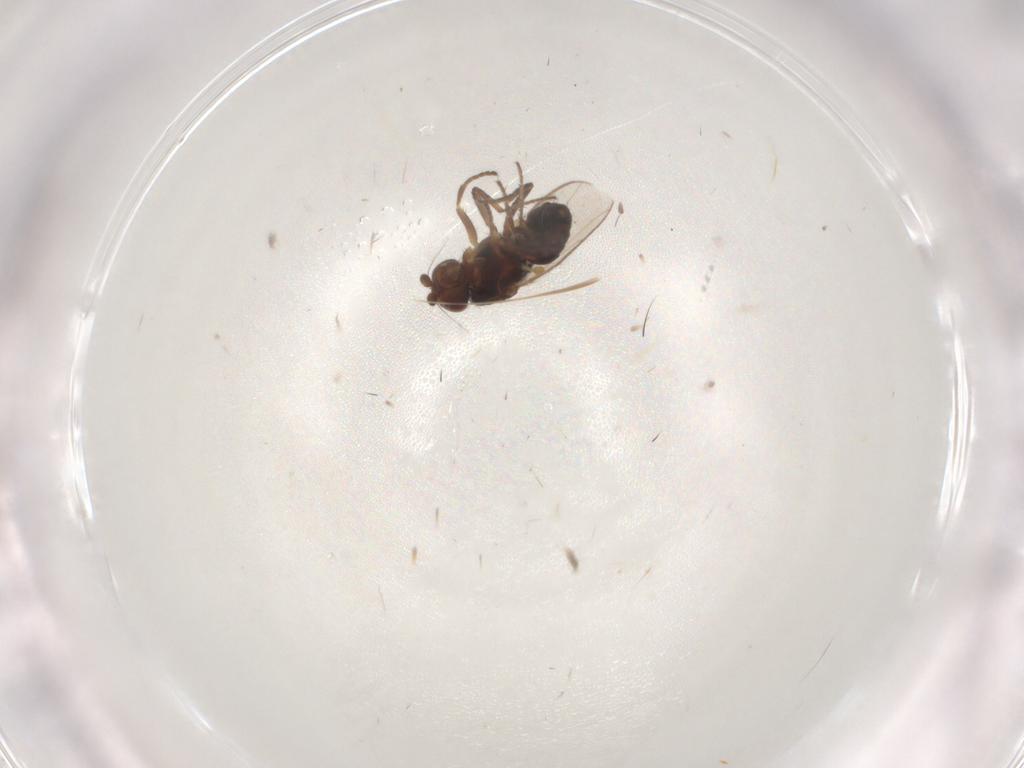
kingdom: Animalia
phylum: Arthropoda
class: Insecta
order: Diptera
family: Sphaeroceridae
